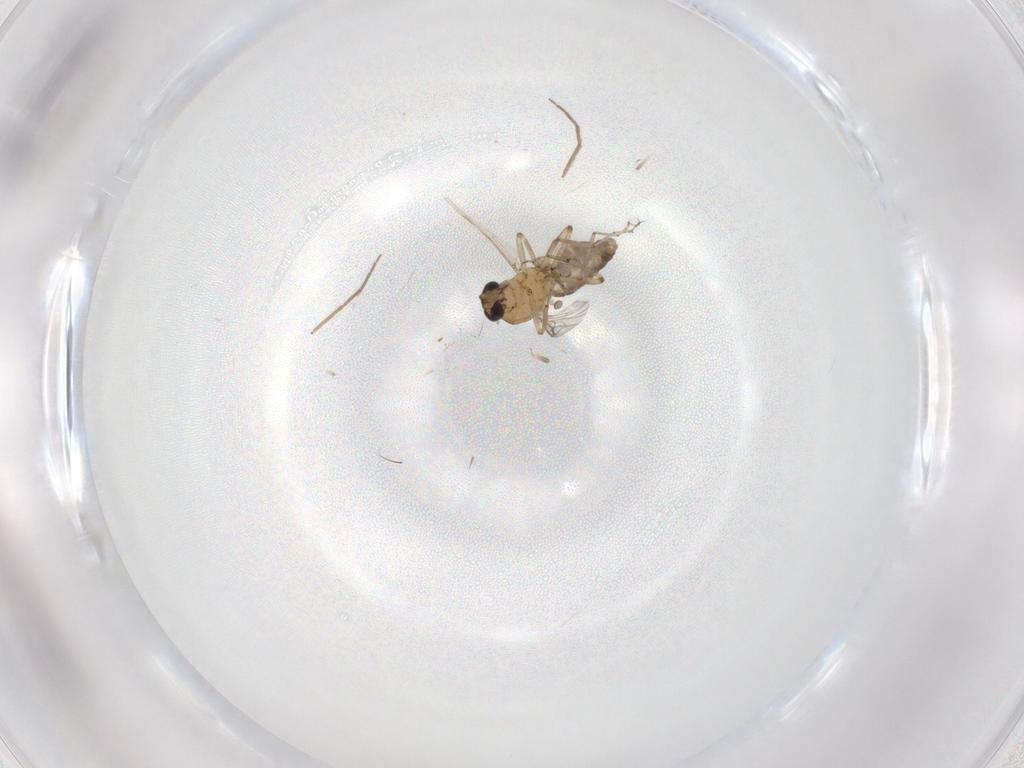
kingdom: Animalia
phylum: Arthropoda
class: Insecta
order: Diptera
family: Ceratopogonidae
